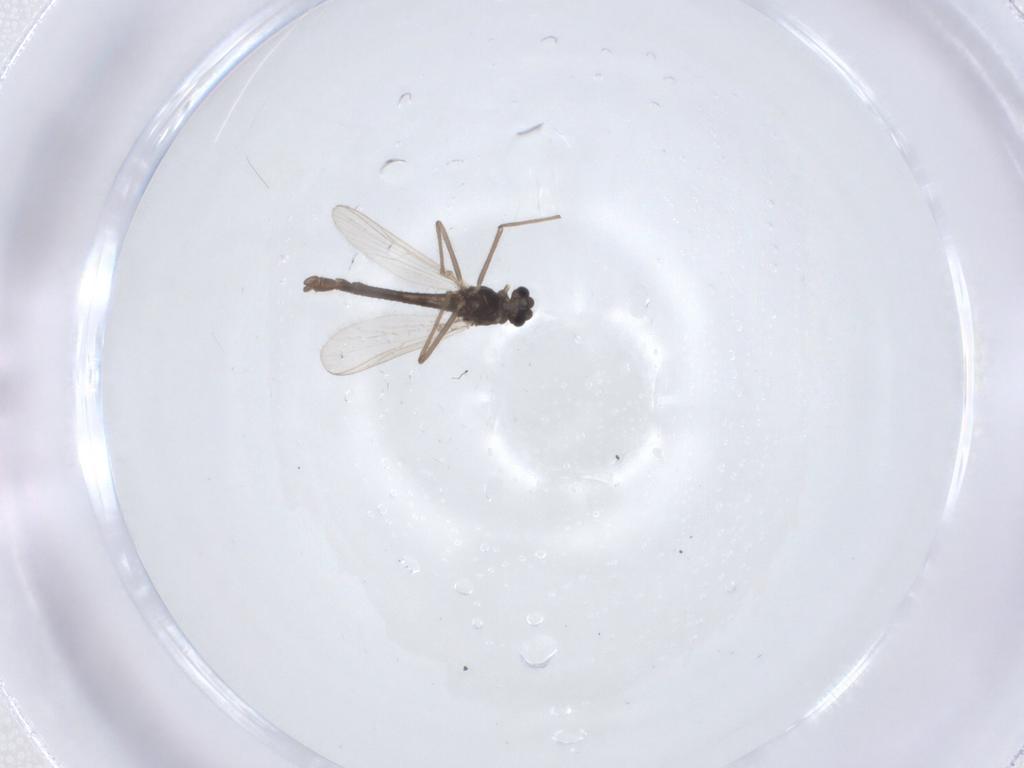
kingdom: Animalia
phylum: Arthropoda
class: Insecta
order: Diptera
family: Chironomidae
